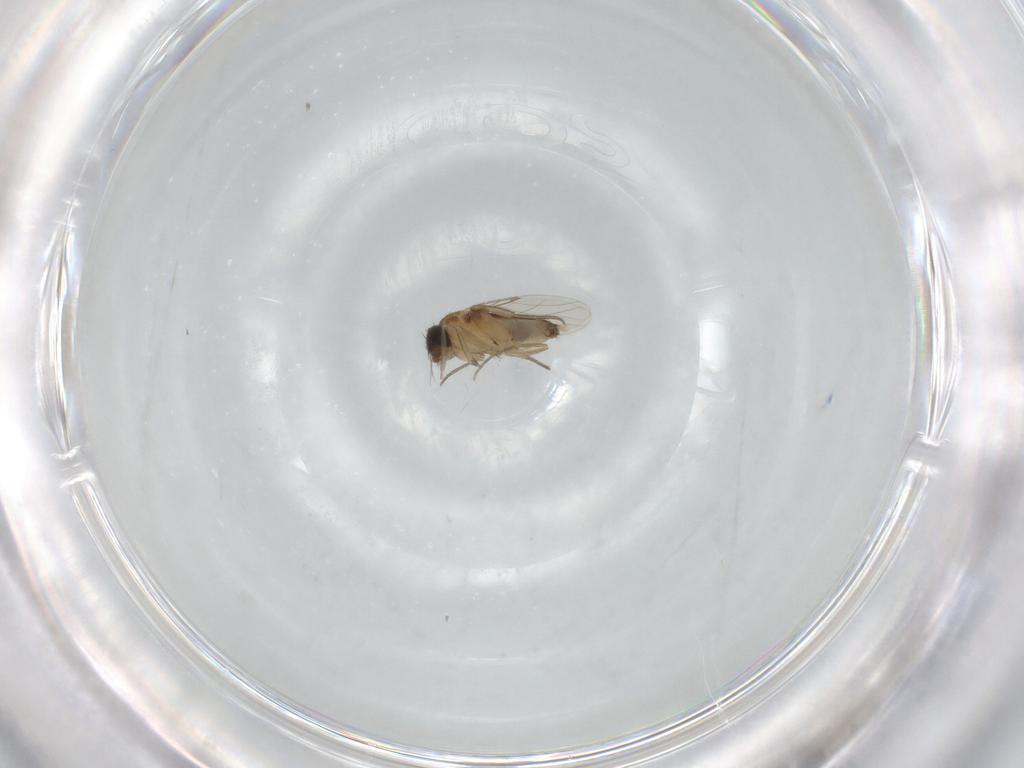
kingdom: Animalia
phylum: Arthropoda
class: Insecta
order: Diptera
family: Phoridae
